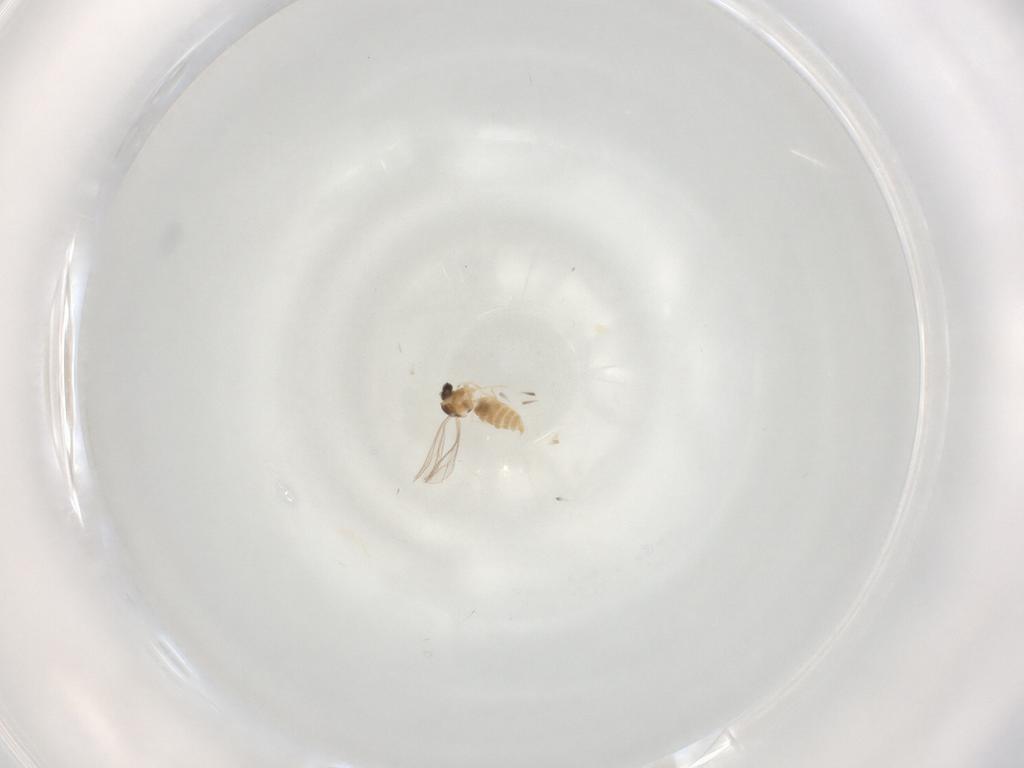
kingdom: Animalia
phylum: Arthropoda
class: Insecta
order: Diptera
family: Cecidomyiidae
